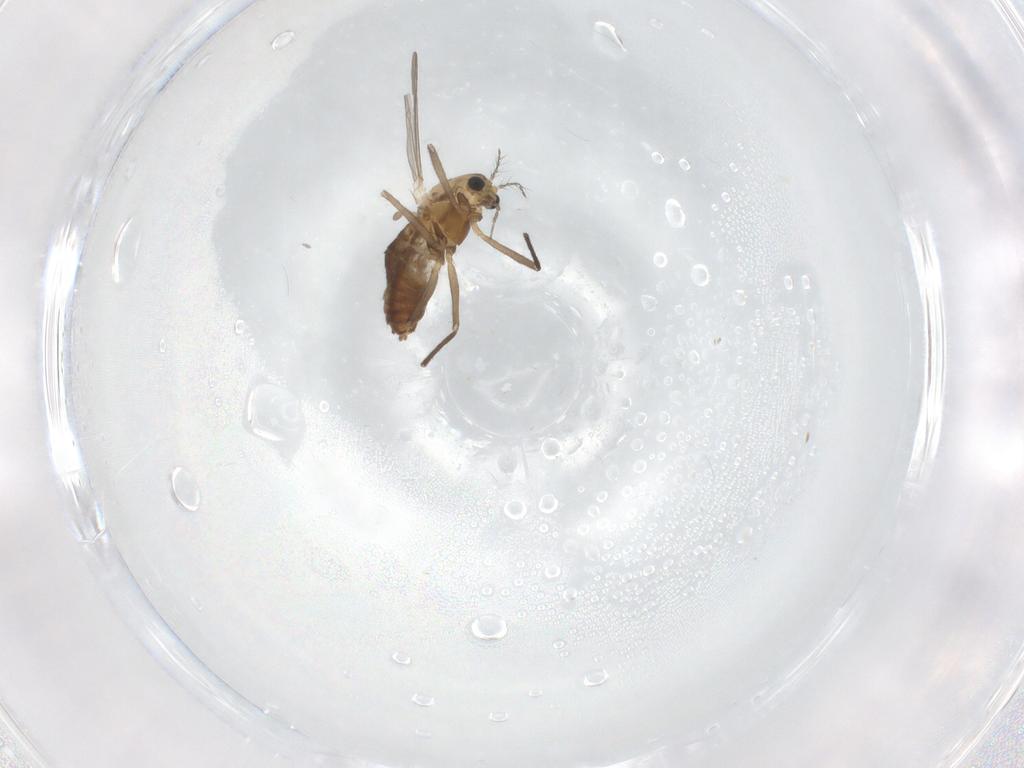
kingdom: Animalia
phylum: Arthropoda
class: Insecta
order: Diptera
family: Chironomidae
